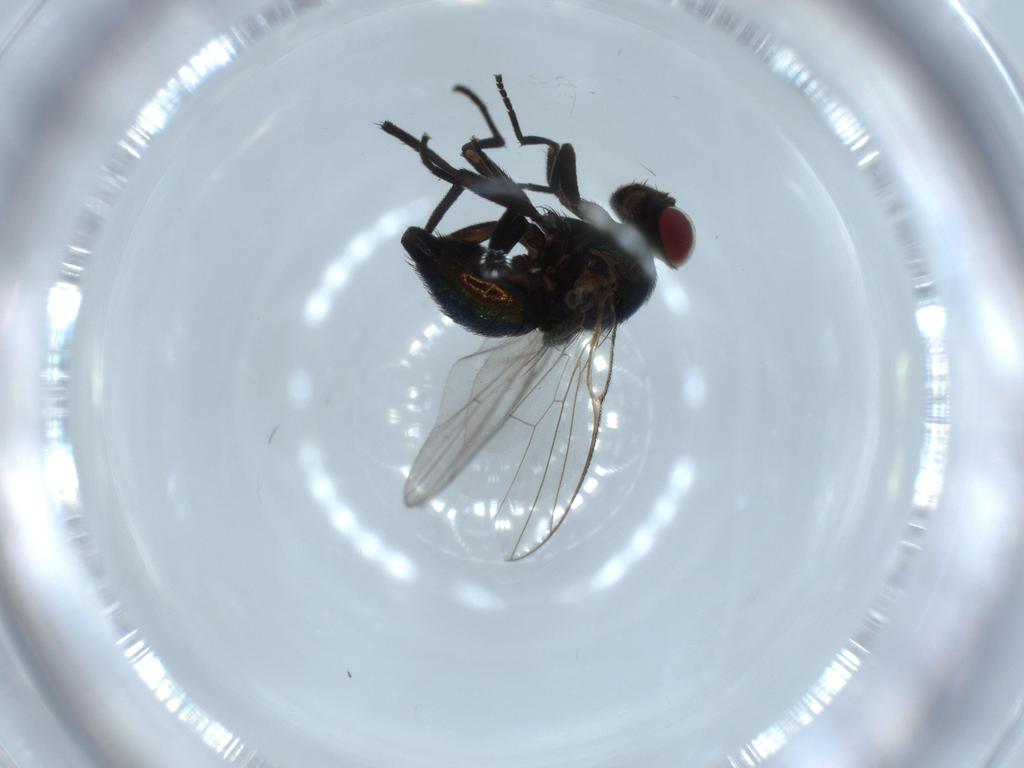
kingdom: Animalia
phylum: Arthropoda
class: Insecta
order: Diptera
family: Agromyzidae
